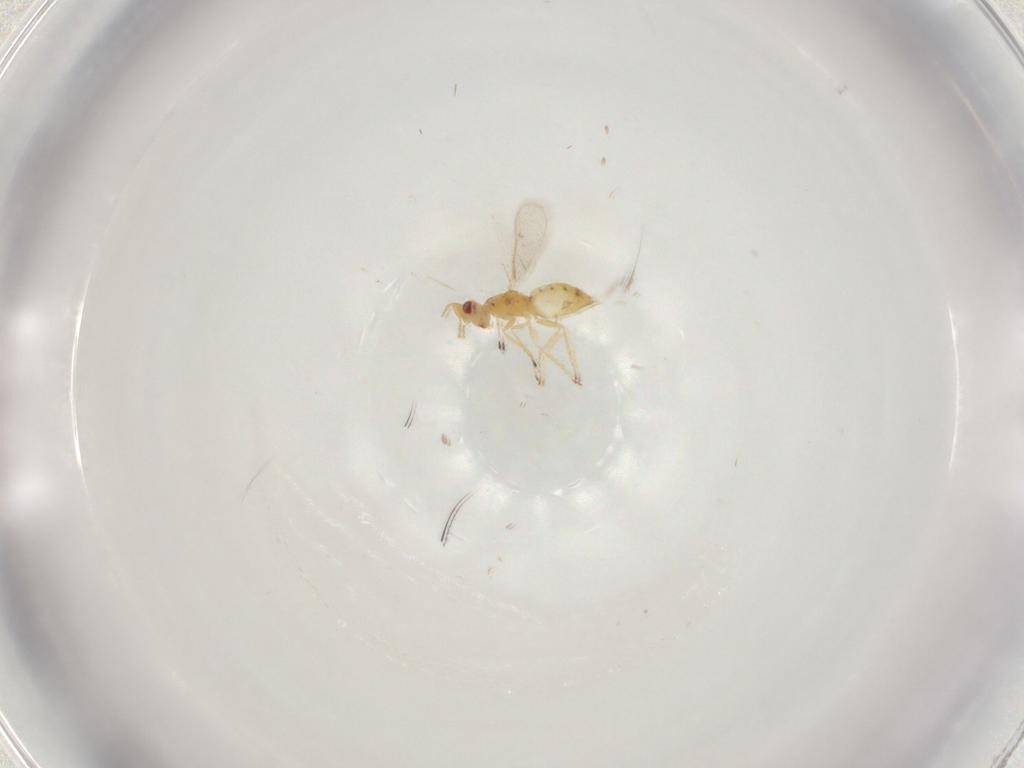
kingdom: Animalia
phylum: Arthropoda
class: Insecta
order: Hymenoptera
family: Eulophidae
